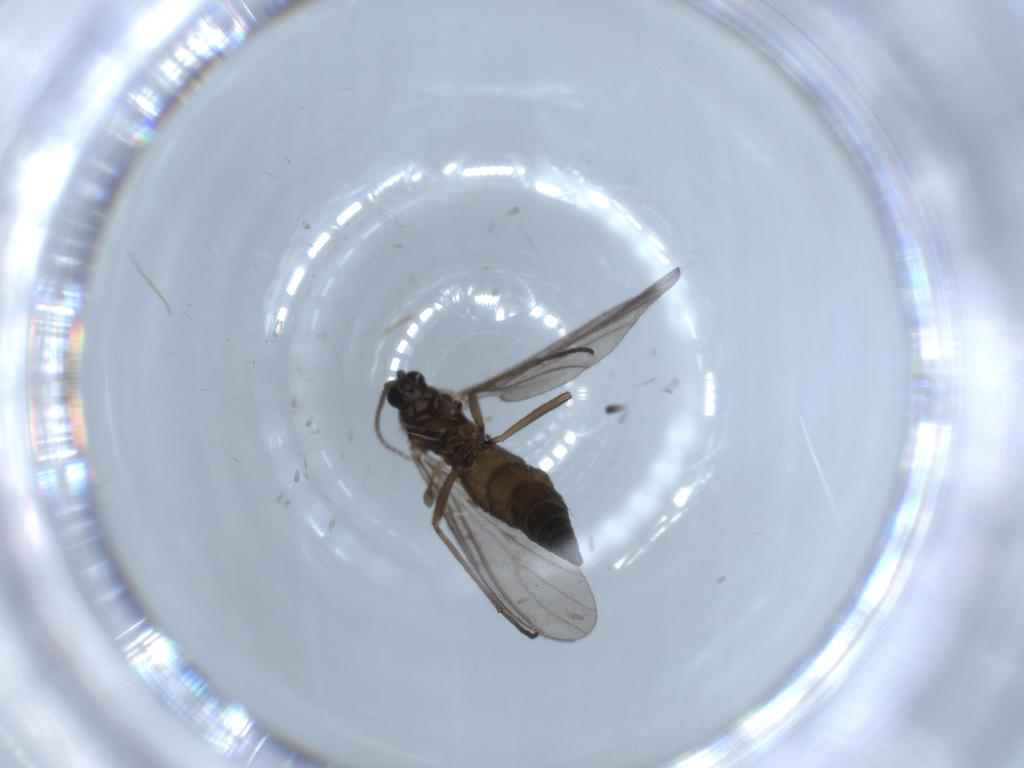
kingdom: Animalia
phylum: Arthropoda
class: Insecta
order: Diptera
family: Sciaridae
